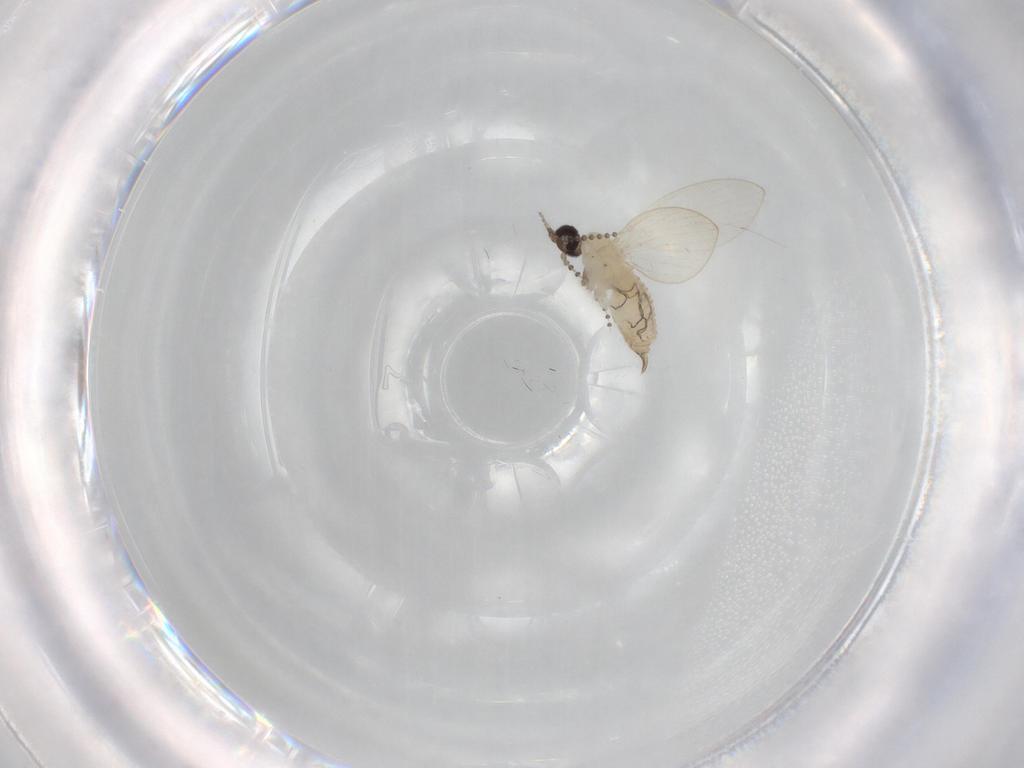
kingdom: Animalia
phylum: Arthropoda
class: Insecta
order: Diptera
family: Psychodidae
